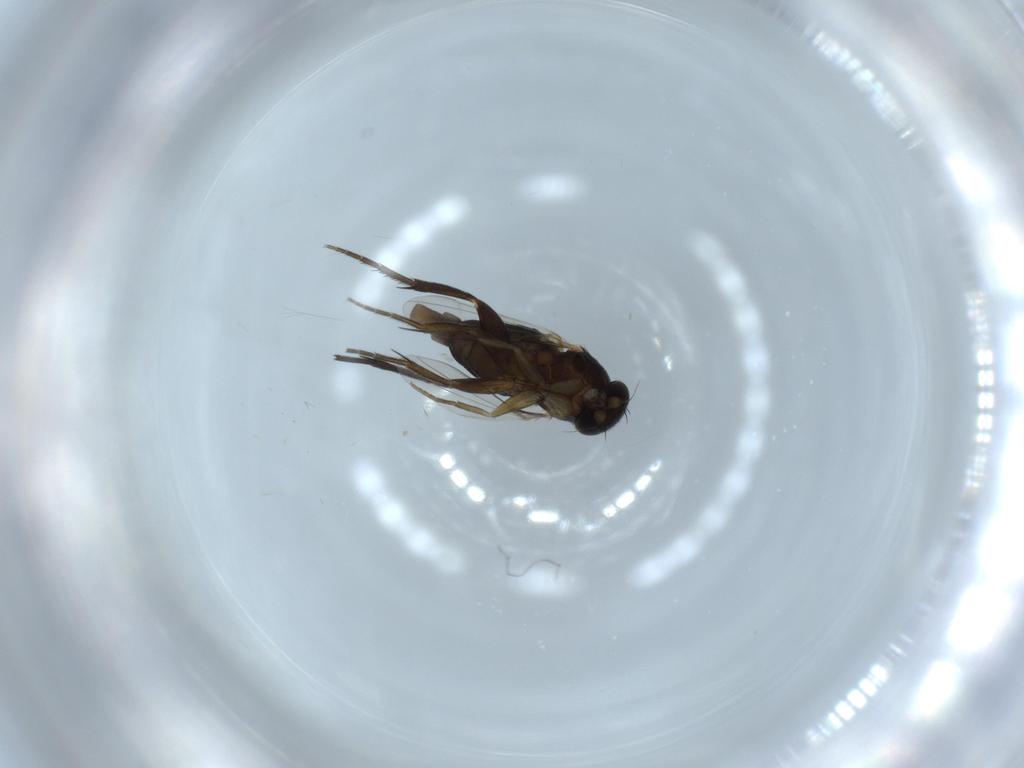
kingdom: Animalia
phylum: Arthropoda
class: Insecta
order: Diptera
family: Phoridae
